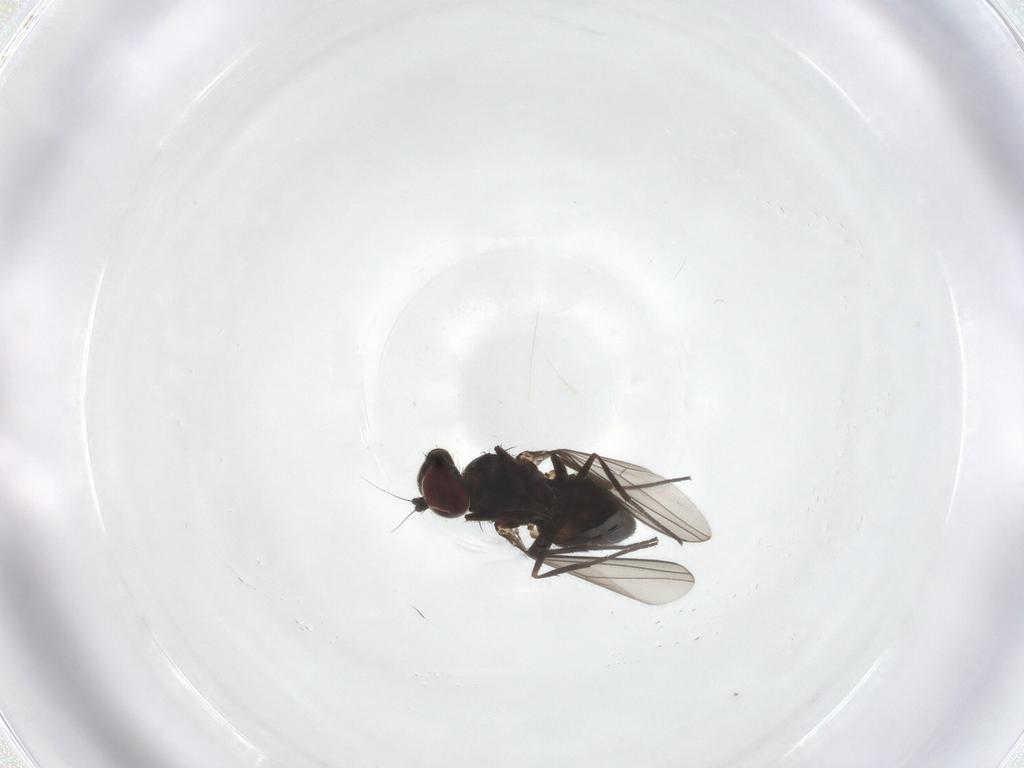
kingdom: Animalia
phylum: Arthropoda
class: Insecta
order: Diptera
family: Dolichopodidae
